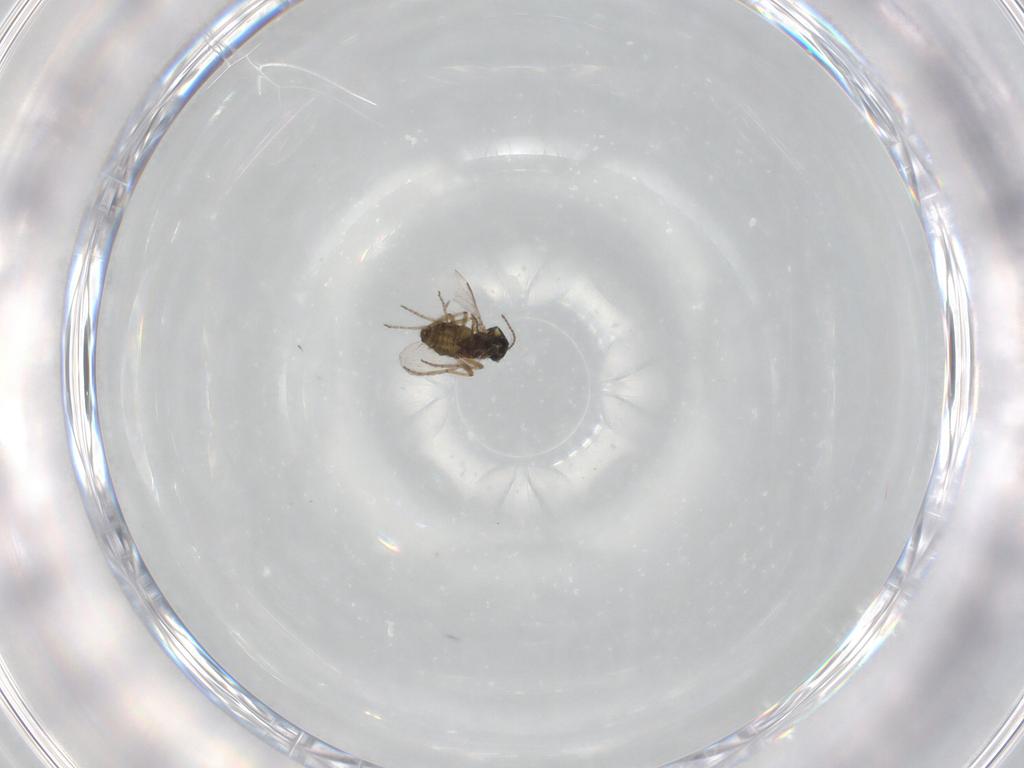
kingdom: Animalia
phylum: Arthropoda
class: Insecta
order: Diptera
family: Ceratopogonidae
